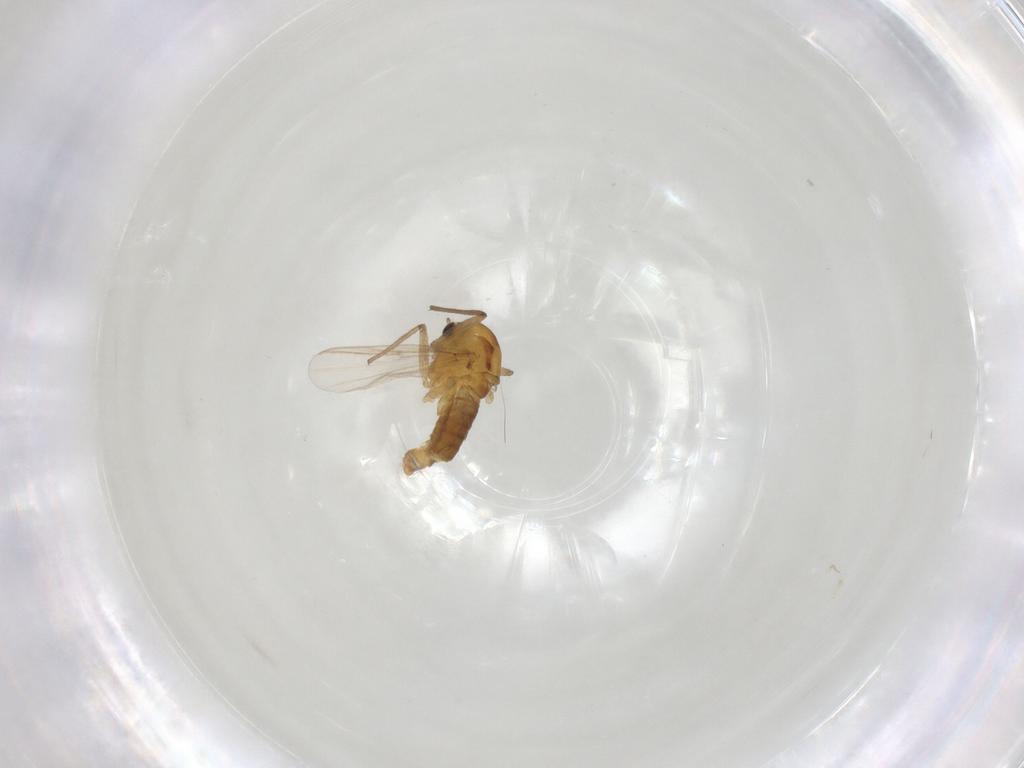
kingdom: Animalia
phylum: Arthropoda
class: Insecta
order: Diptera
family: Chironomidae
